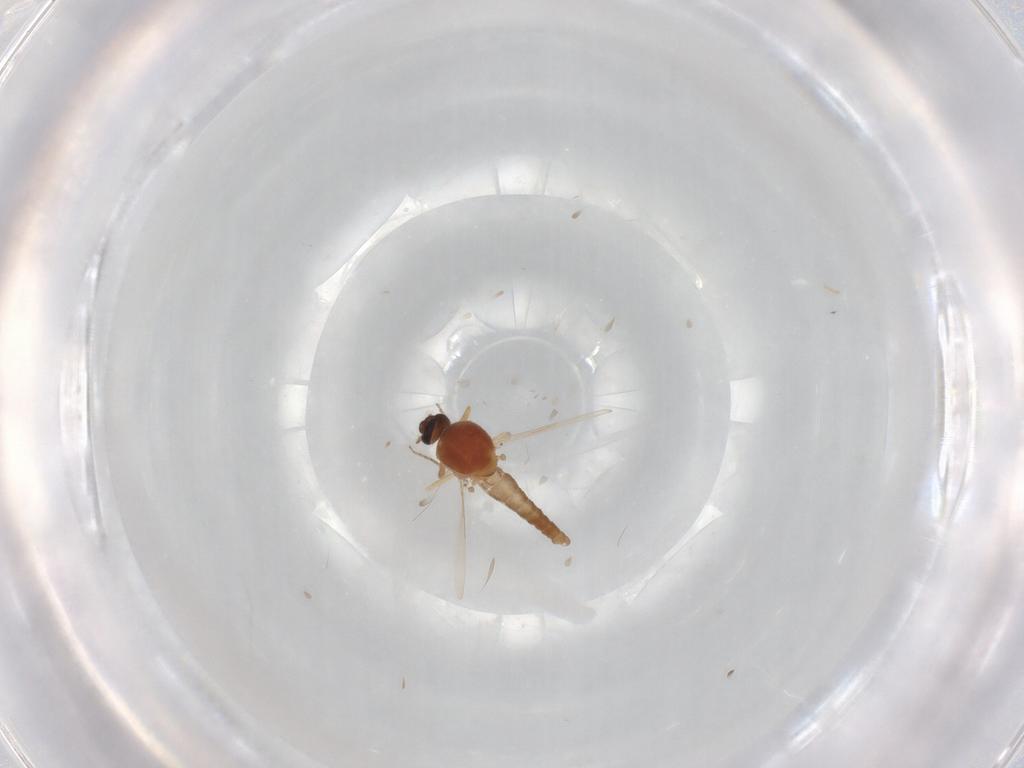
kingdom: Animalia
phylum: Arthropoda
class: Insecta
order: Diptera
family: Ceratopogonidae
